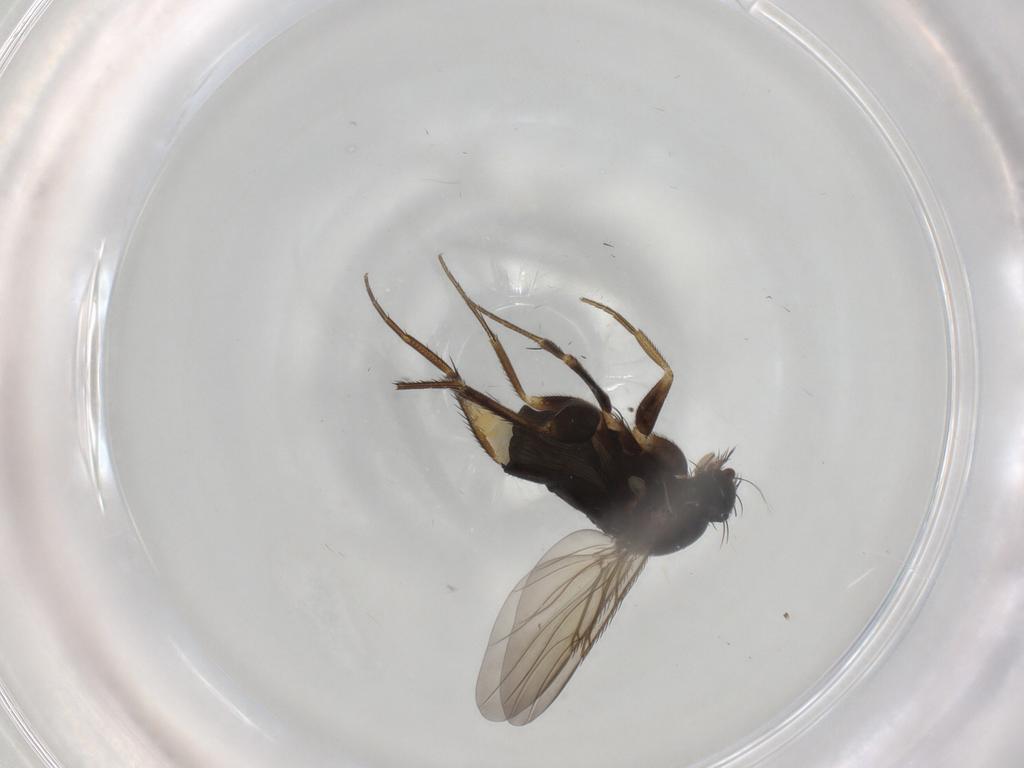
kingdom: Animalia
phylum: Arthropoda
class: Insecta
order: Diptera
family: Sciaridae
